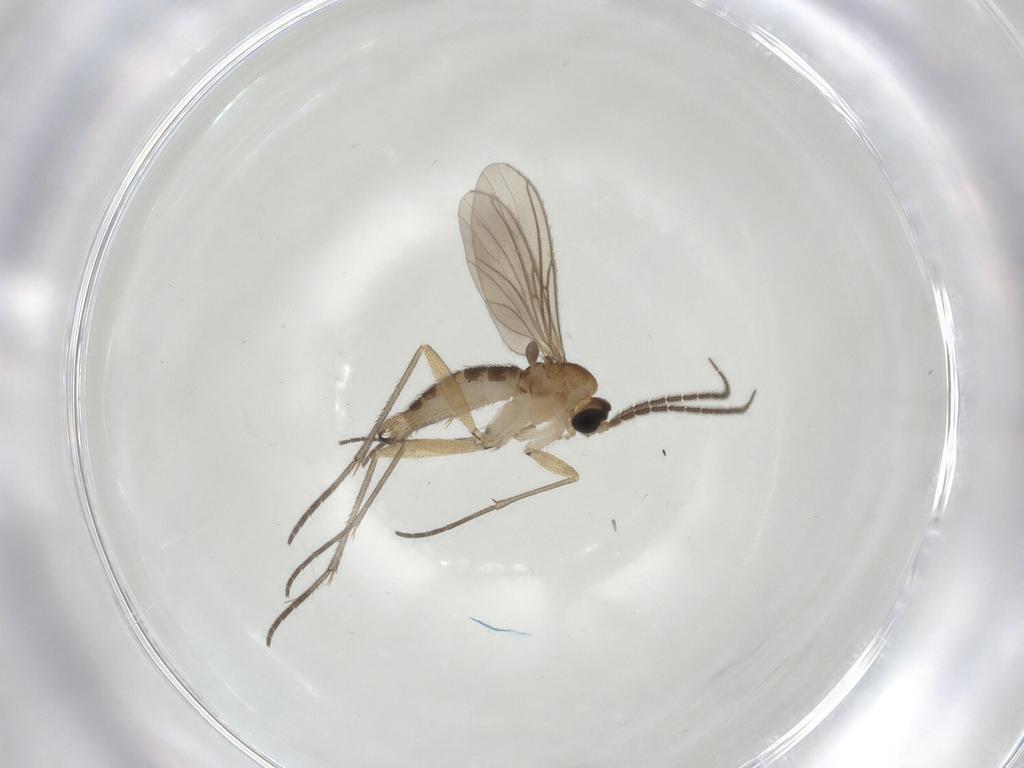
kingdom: Animalia
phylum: Arthropoda
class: Insecta
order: Diptera
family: Sciaridae
